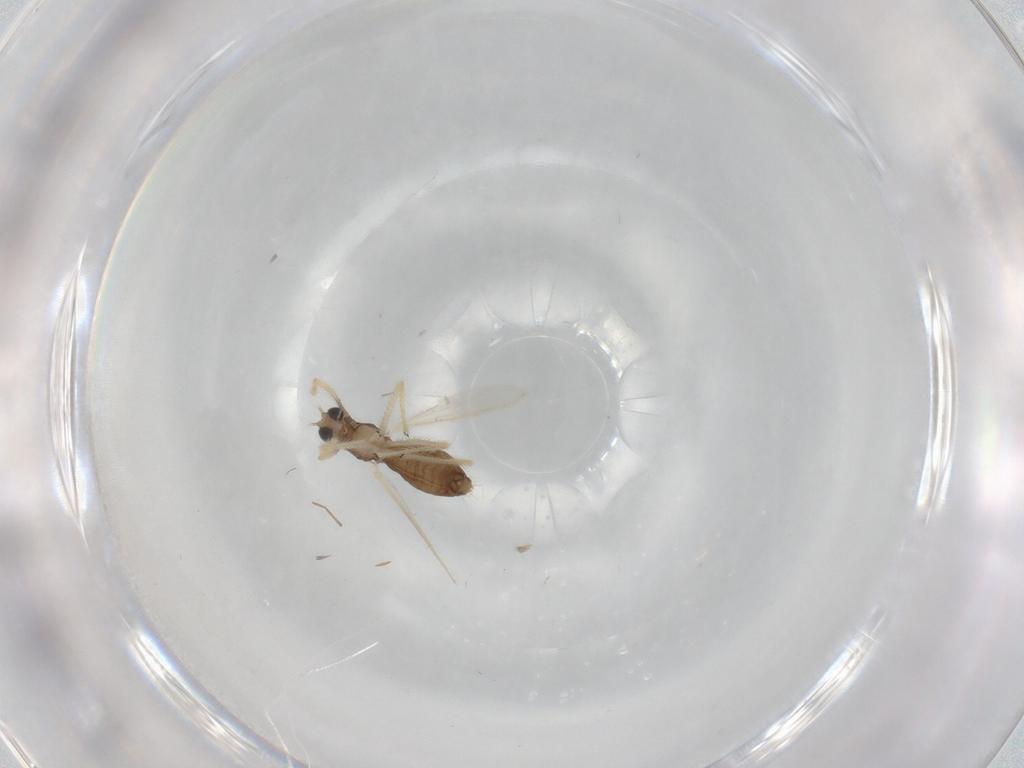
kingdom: Animalia
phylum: Arthropoda
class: Insecta
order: Diptera
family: Chironomidae
